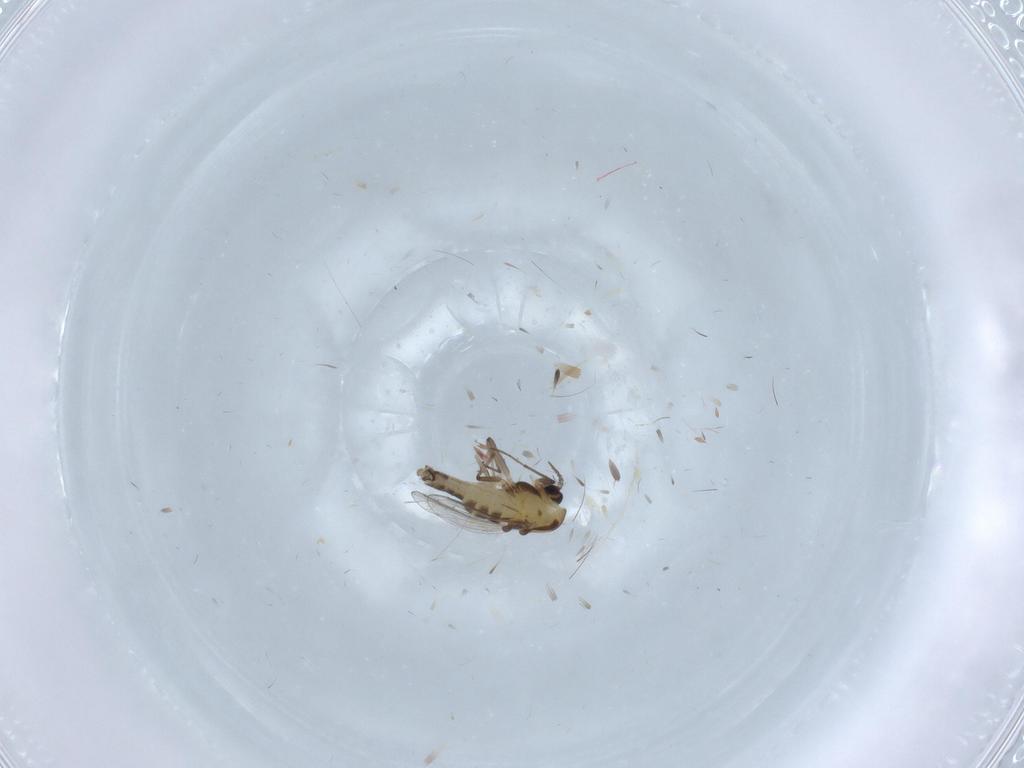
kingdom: Animalia
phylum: Arthropoda
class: Insecta
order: Diptera
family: Chironomidae
